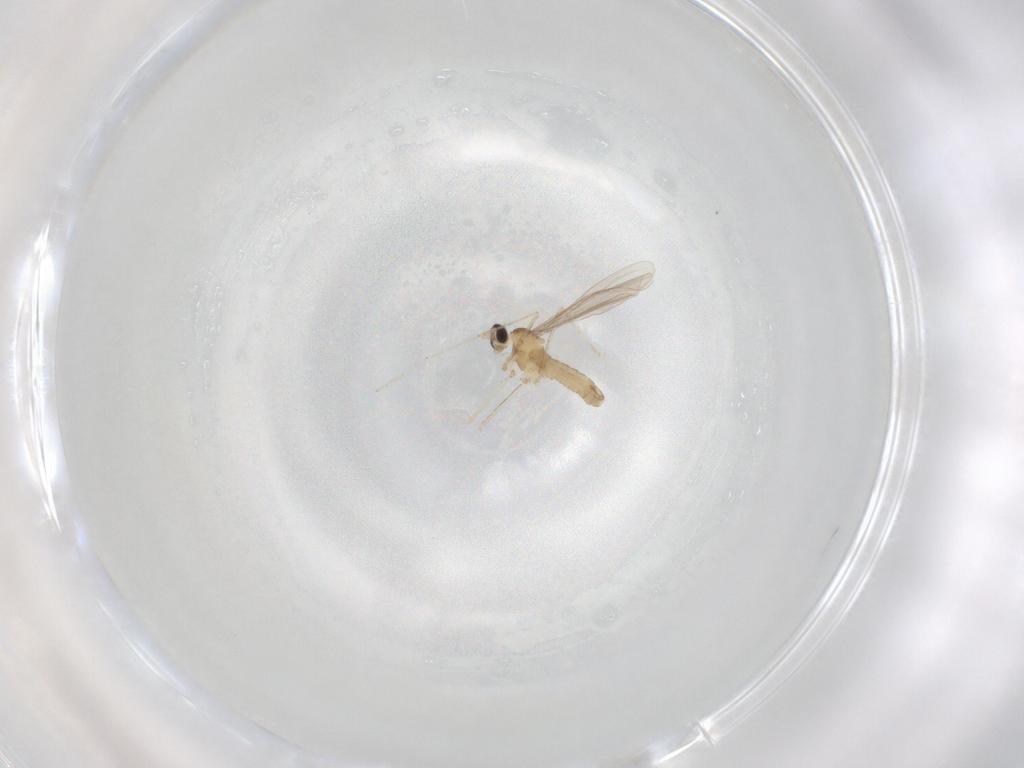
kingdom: Animalia
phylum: Arthropoda
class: Insecta
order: Diptera
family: Cecidomyiidae
